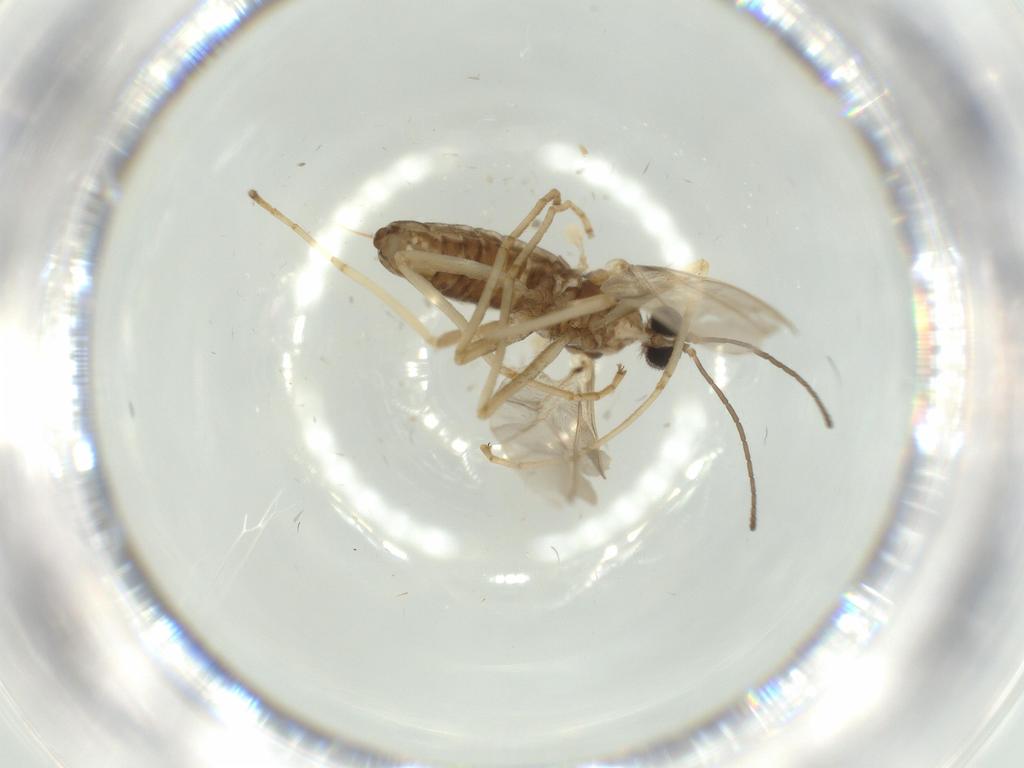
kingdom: Animalia
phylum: Arthropoda
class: Insecta
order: Diptera
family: Cecidomyiidae
